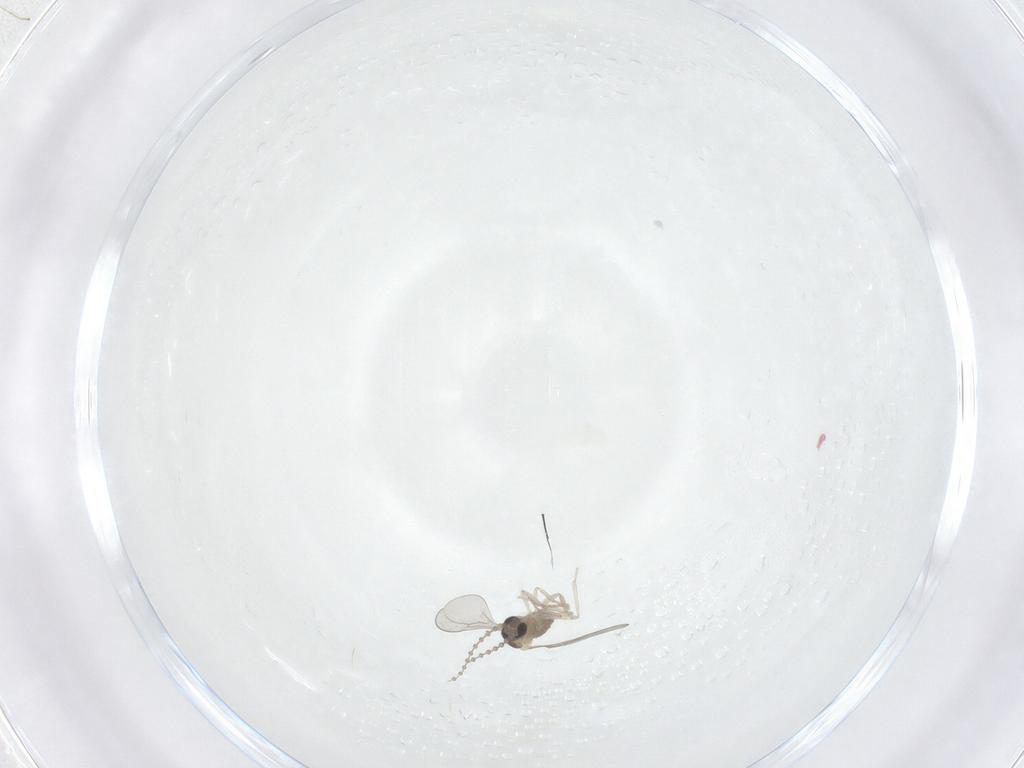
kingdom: Animalia
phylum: Arthropoda
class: Insecta
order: Diptera
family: Cecidomyiidae
